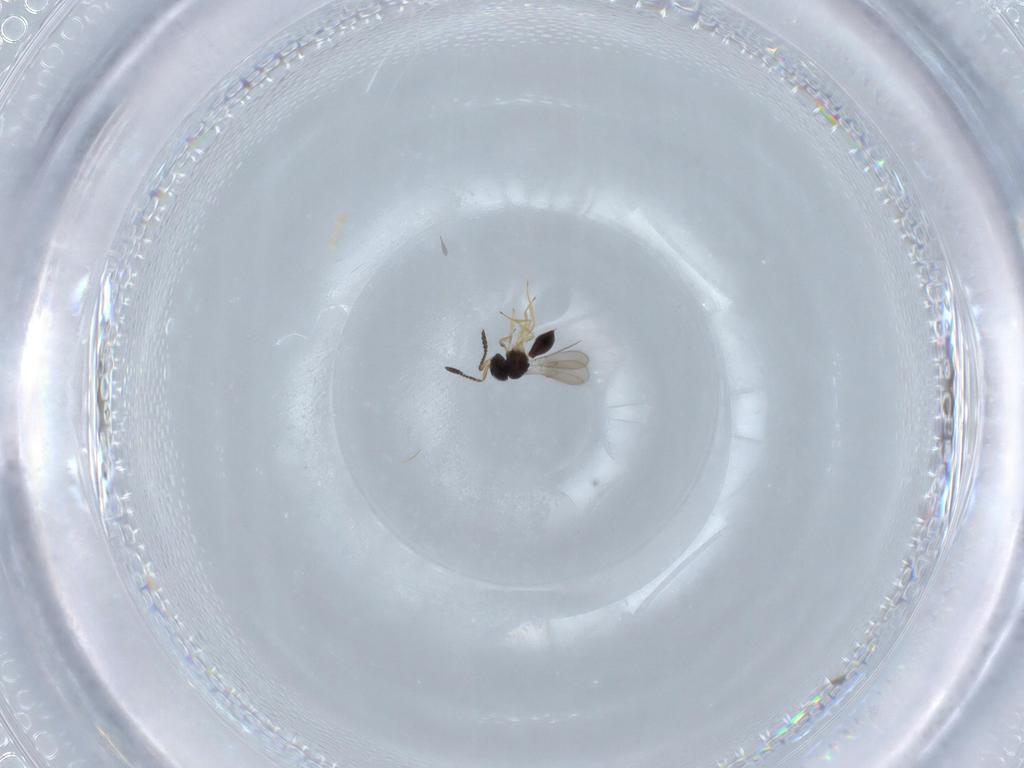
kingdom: Animalia
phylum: Arthropoda
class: Insecta
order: Hymenoptera
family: Scelionidae
